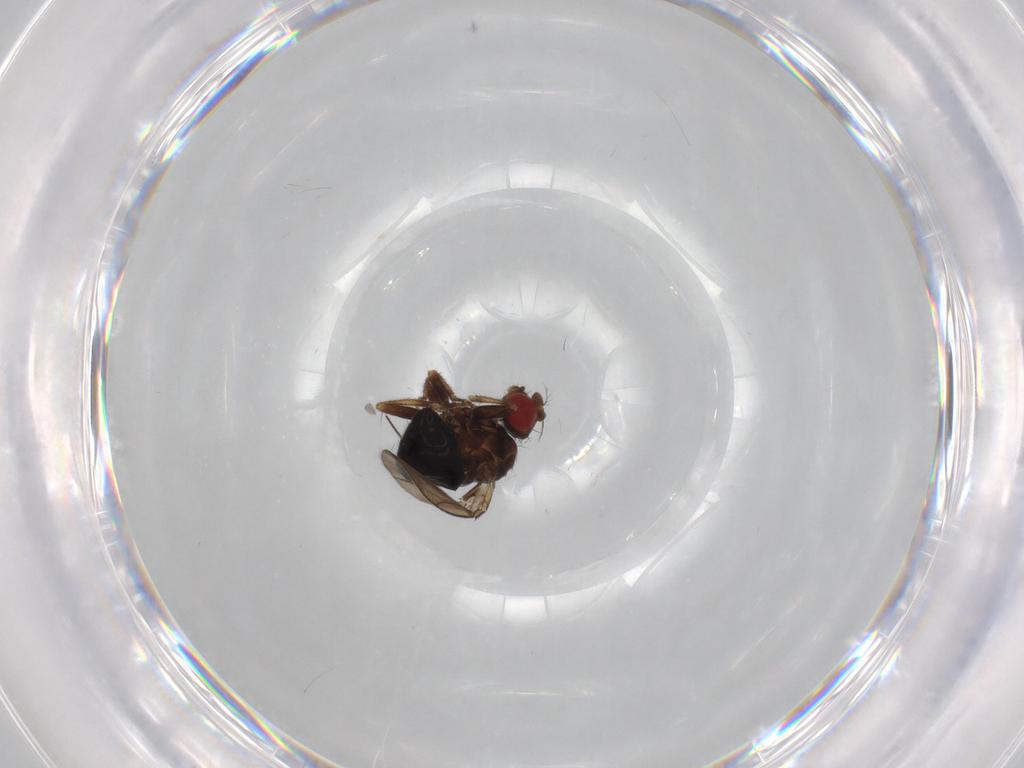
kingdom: Animalia
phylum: Arthropoda
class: Insecta
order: Diptera
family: Drosophilidae
